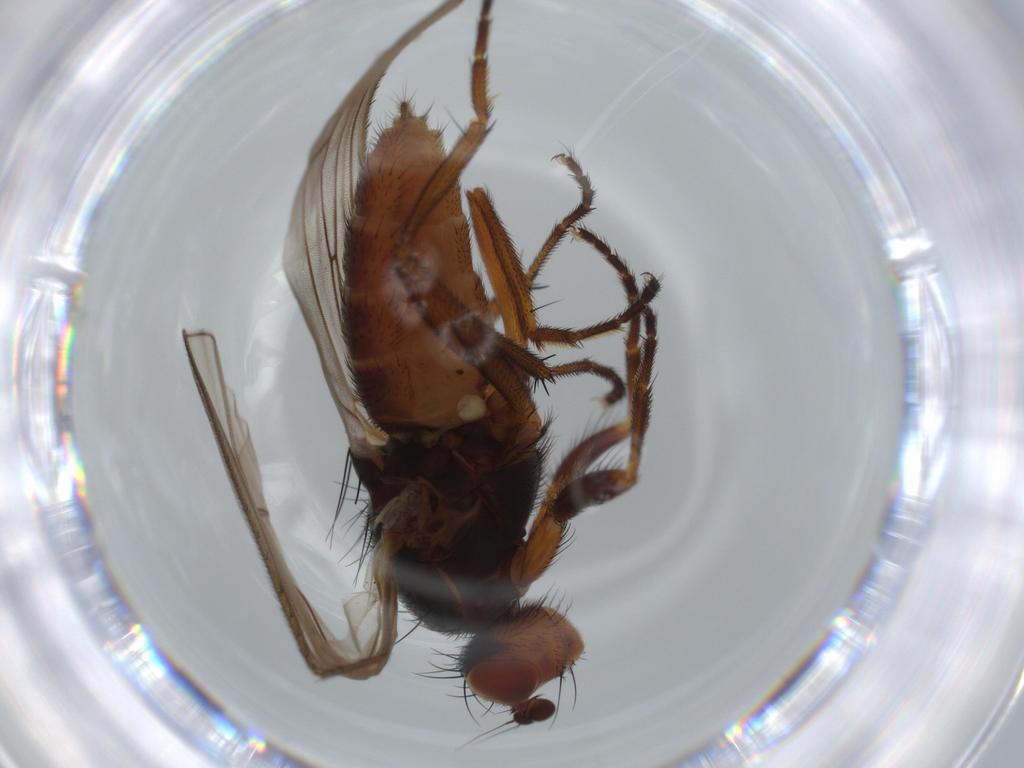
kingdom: Animalia
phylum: Arthropoda
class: Insecta
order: Diptera
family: Heleomyzidae
